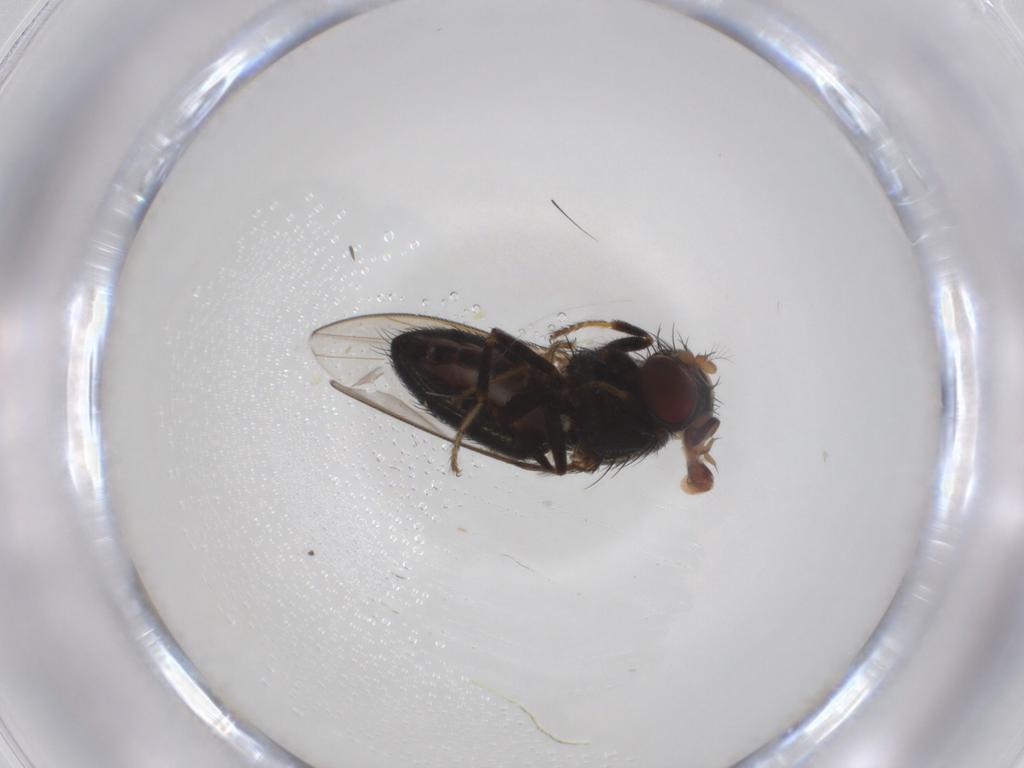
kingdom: Animalia
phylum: Arthropoda
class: Insecta
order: Diptera
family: Ephydridae
